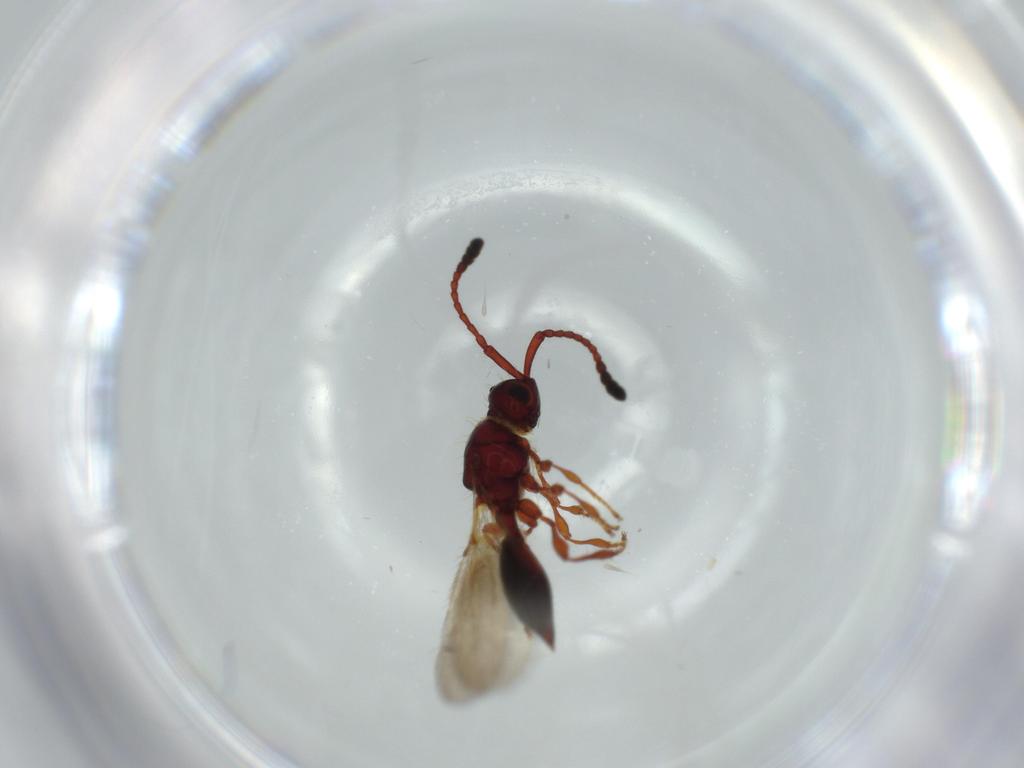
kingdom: Animalia
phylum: Arthropoda
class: Insecta
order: Hymenoptera
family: Diapriidae
